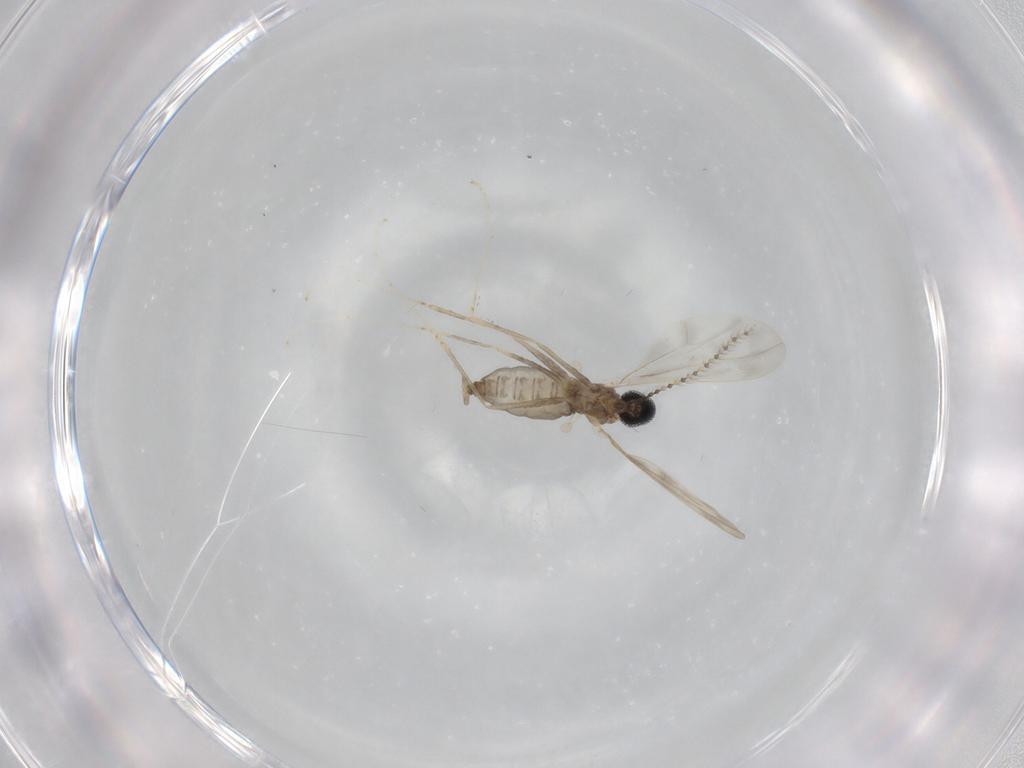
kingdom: Animalia
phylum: Arthropoda
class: Insecta
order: Diptera
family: Cecidomyiidae
